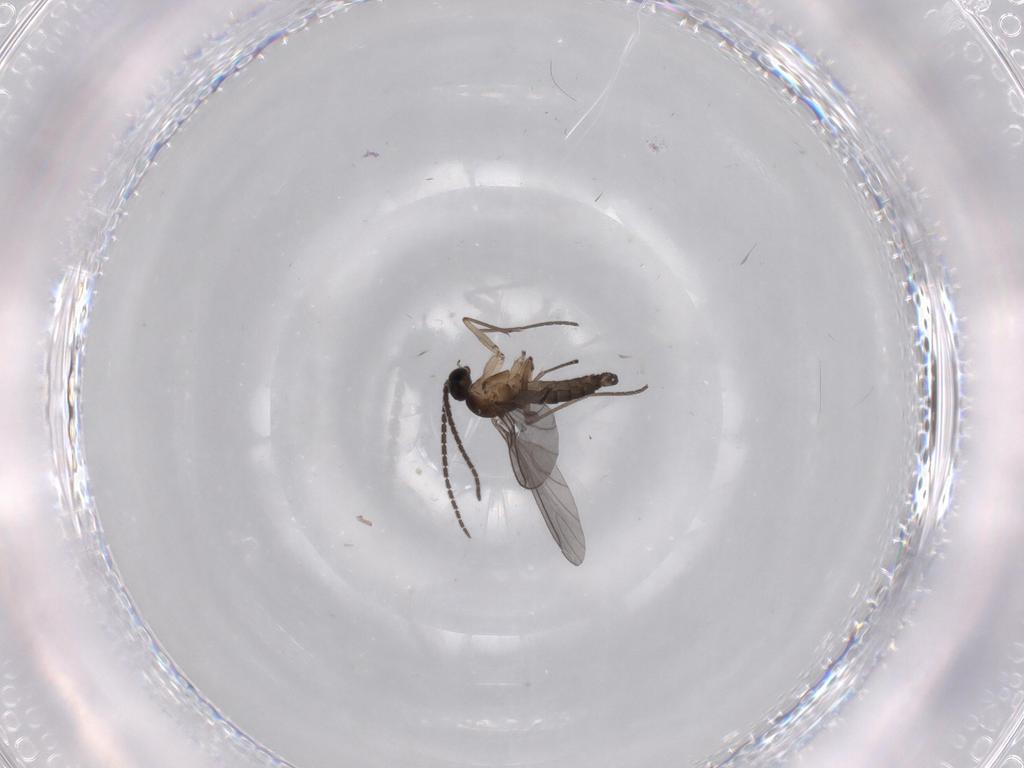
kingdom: Animalia
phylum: Arthropoda
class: Insecta
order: Diptera
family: Sciaridae
